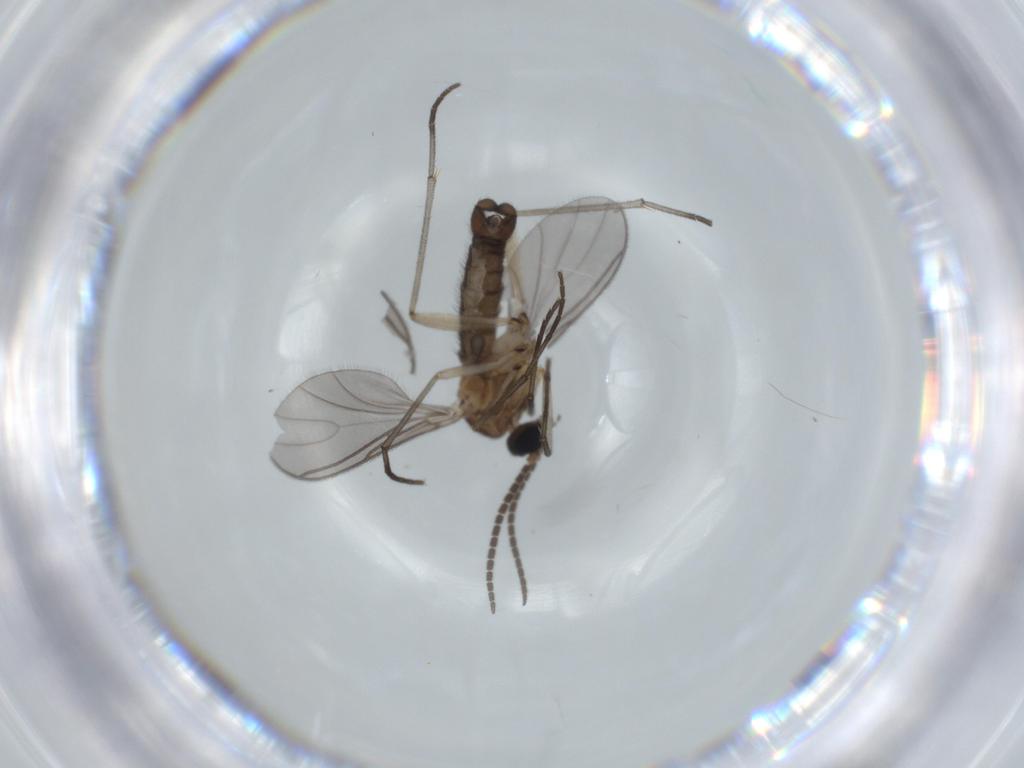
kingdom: Animalia
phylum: Arthropoda
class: Insecta
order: Diptera
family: Sciaridae
